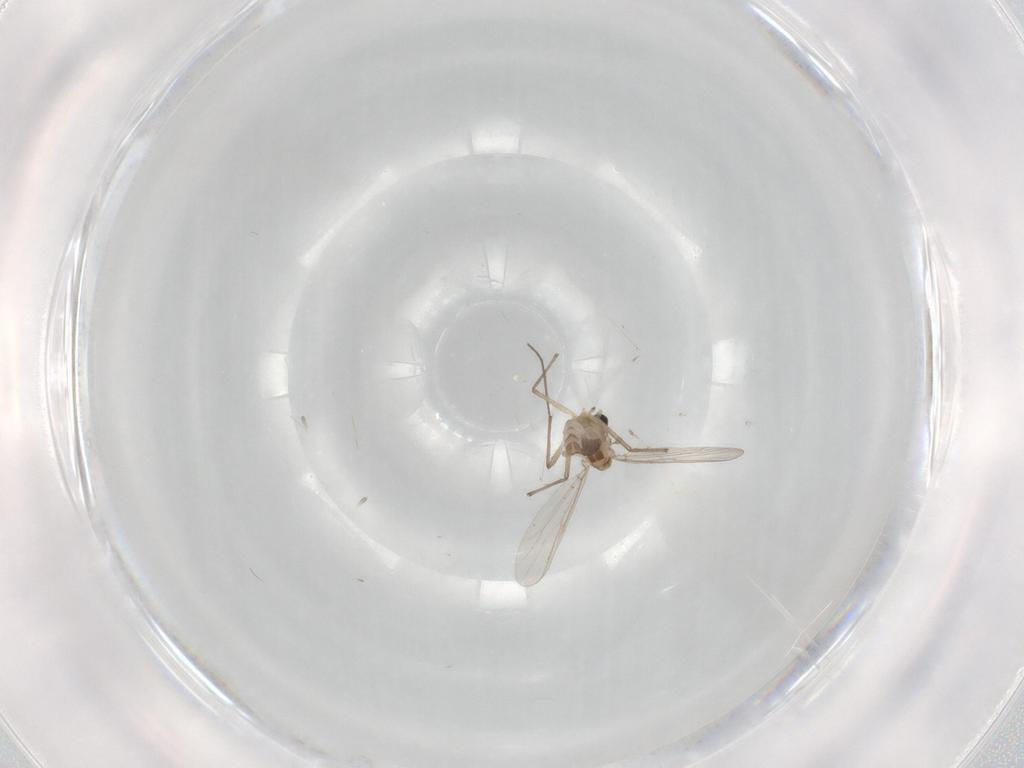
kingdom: Animalia
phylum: Arthropoda
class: Insecta
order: Diptera
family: Chironomidae
